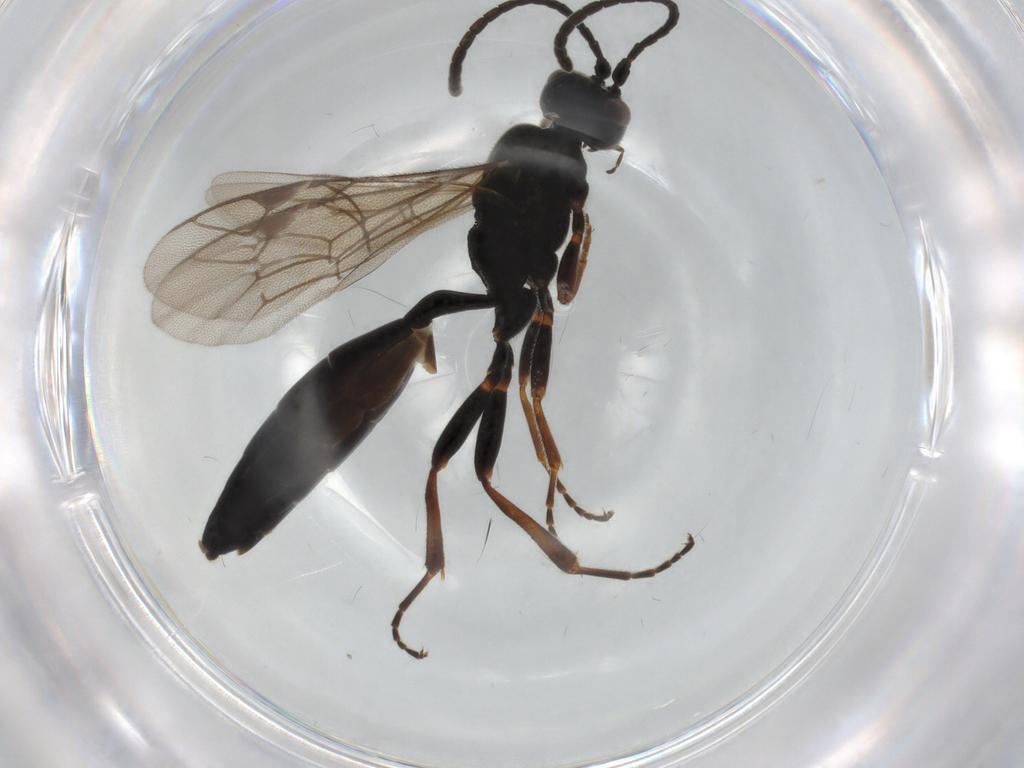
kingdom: Animalia
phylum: Arthropoda
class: Insecta
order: Hymenoptera
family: Ichneumonidae
